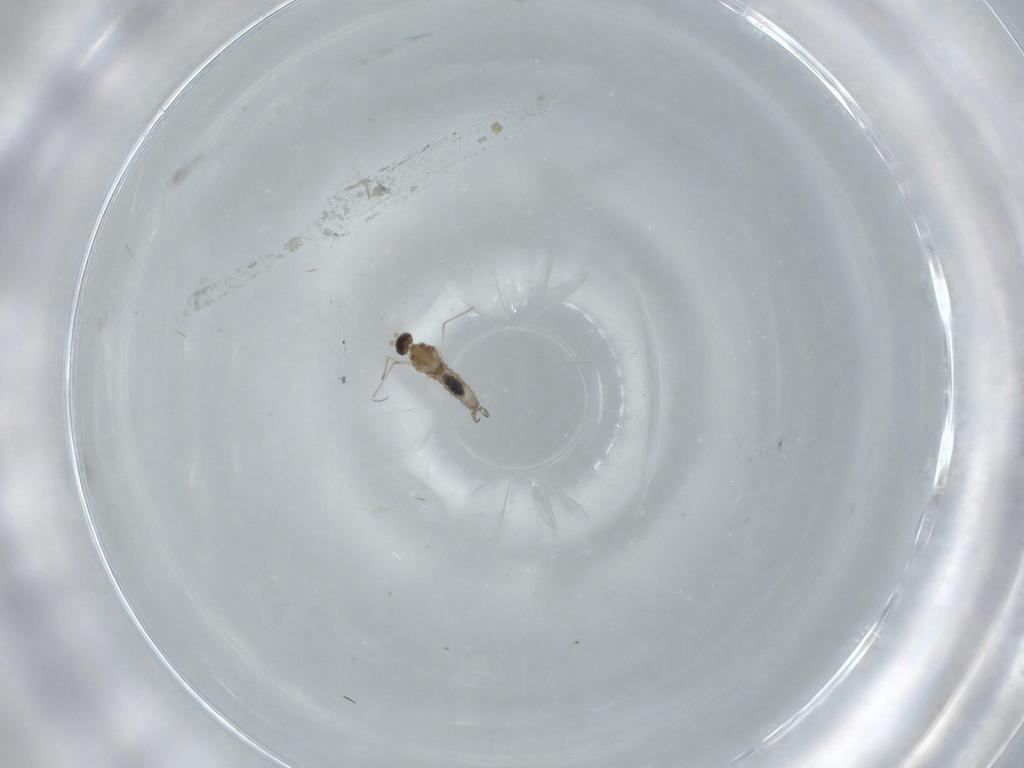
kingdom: Animalia
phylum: Arthropoda
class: Insecta
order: Diptera
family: Cecidomyiidae
